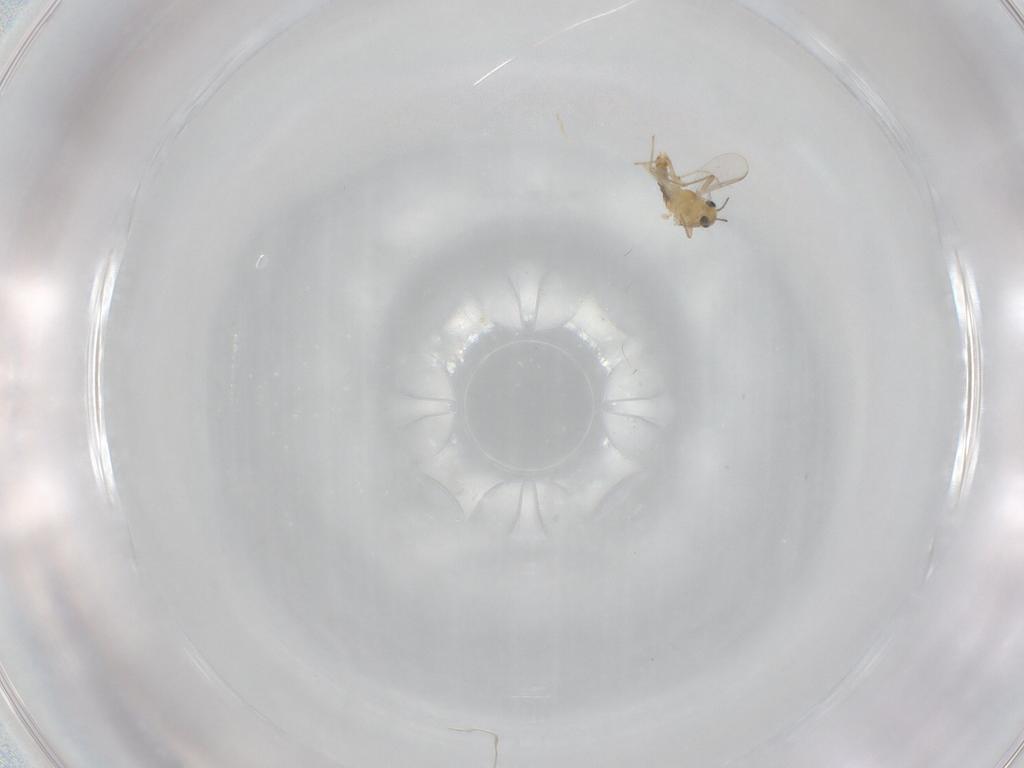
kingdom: Animalia
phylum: Arthropoda
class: Insecta
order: Diptera
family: Chironomidae
